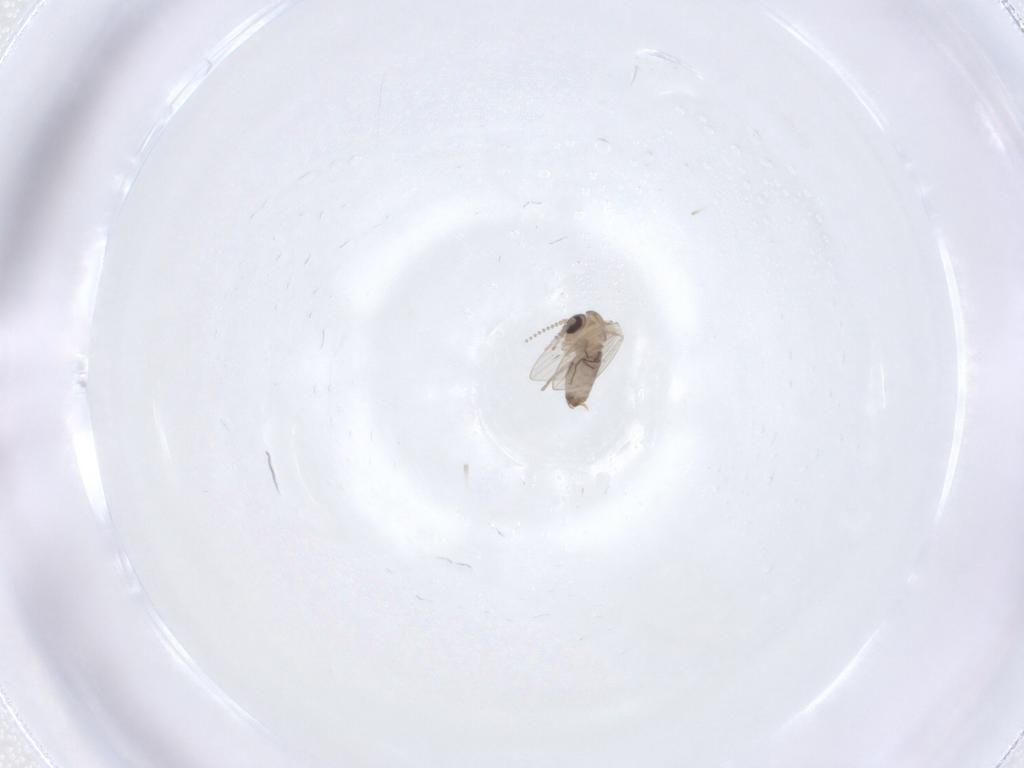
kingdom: Animalia
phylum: Arthropoda
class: Insecta
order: Diptera
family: Psychodidae
